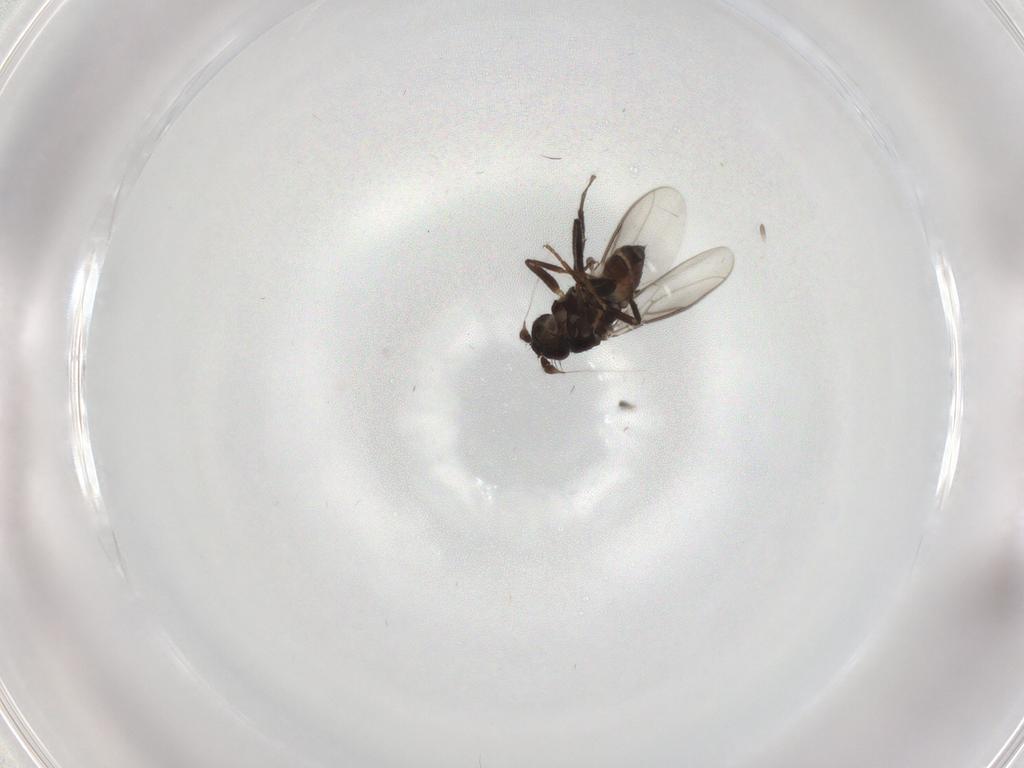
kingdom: Animalia
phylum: Arthropoda
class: Insecta
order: Diptera
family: Sphaeroceridae
